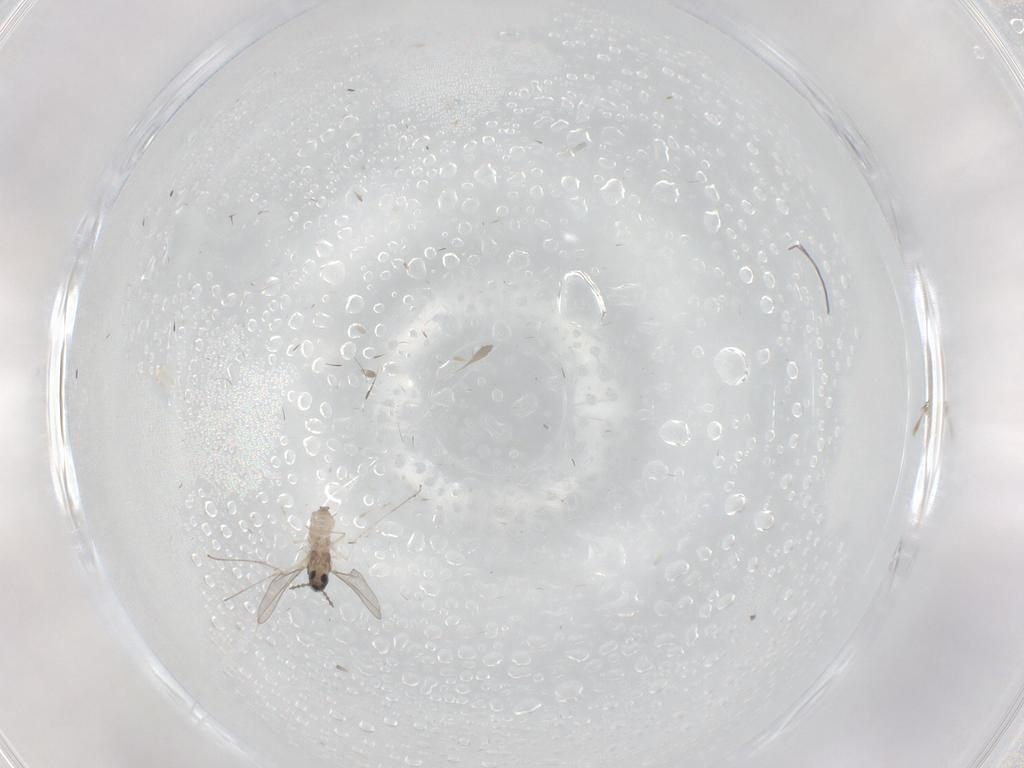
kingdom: Animalia
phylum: Arthropoda
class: Insecta
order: Diptera
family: Cecidomyiidae
